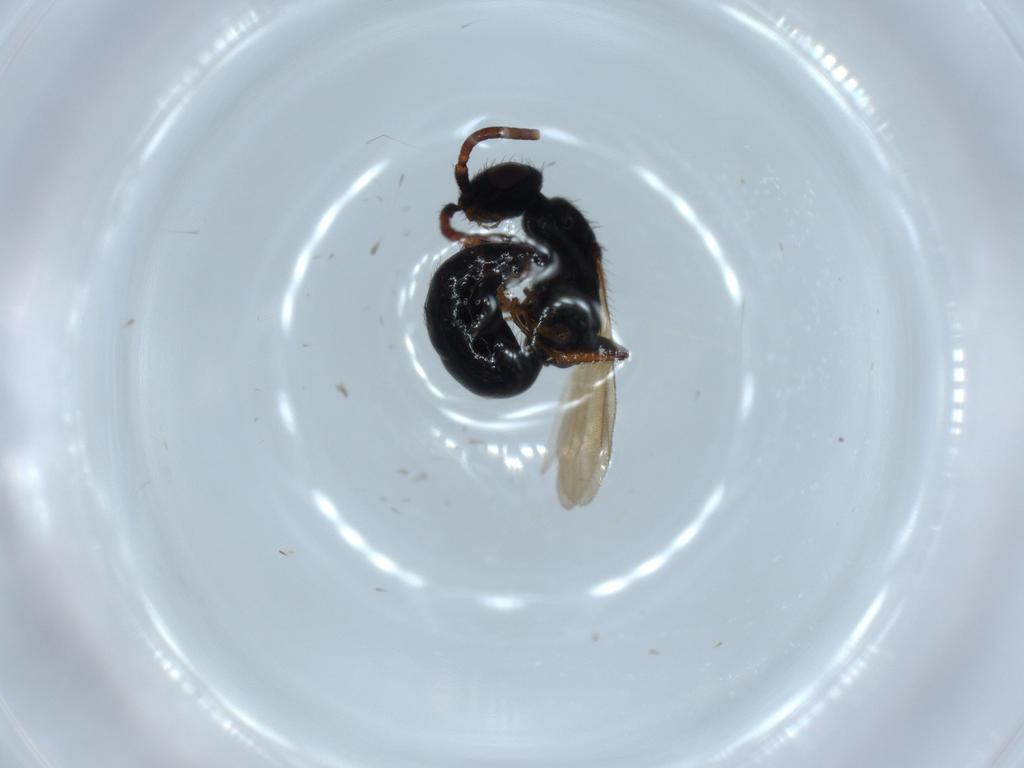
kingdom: Animalia
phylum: Arthropoda
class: Insecta
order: Hymenoptera
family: Bethylidae
